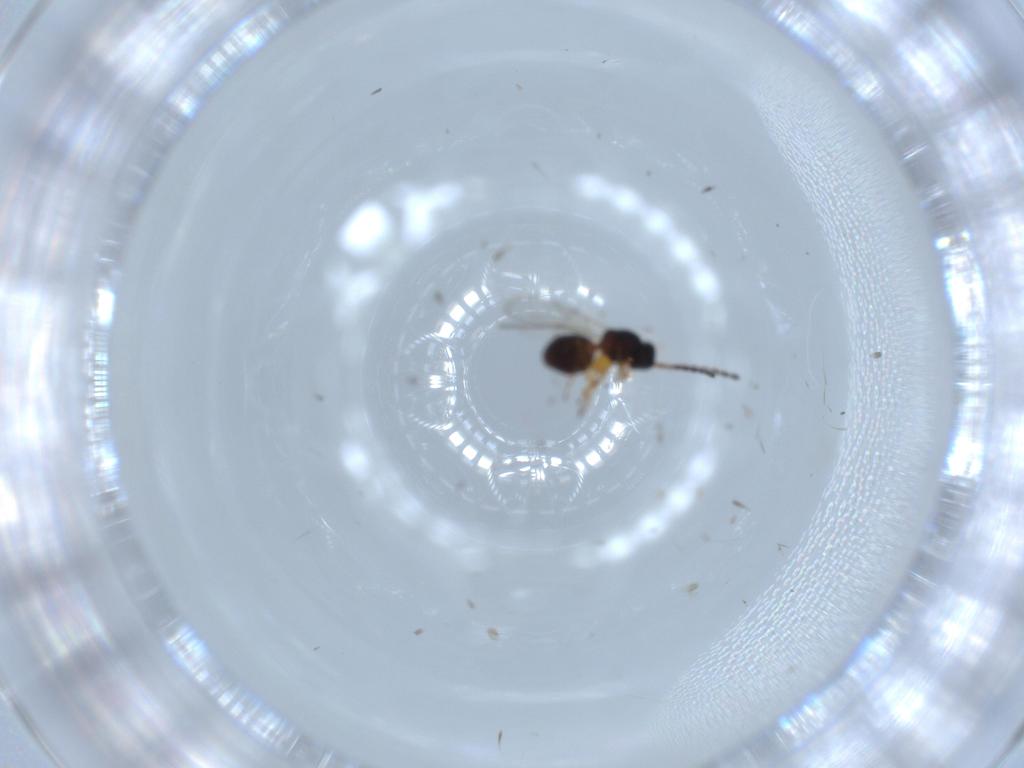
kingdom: Animalia
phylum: Arthropoda
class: Insecta
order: Hymenoptera
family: Figitidae
